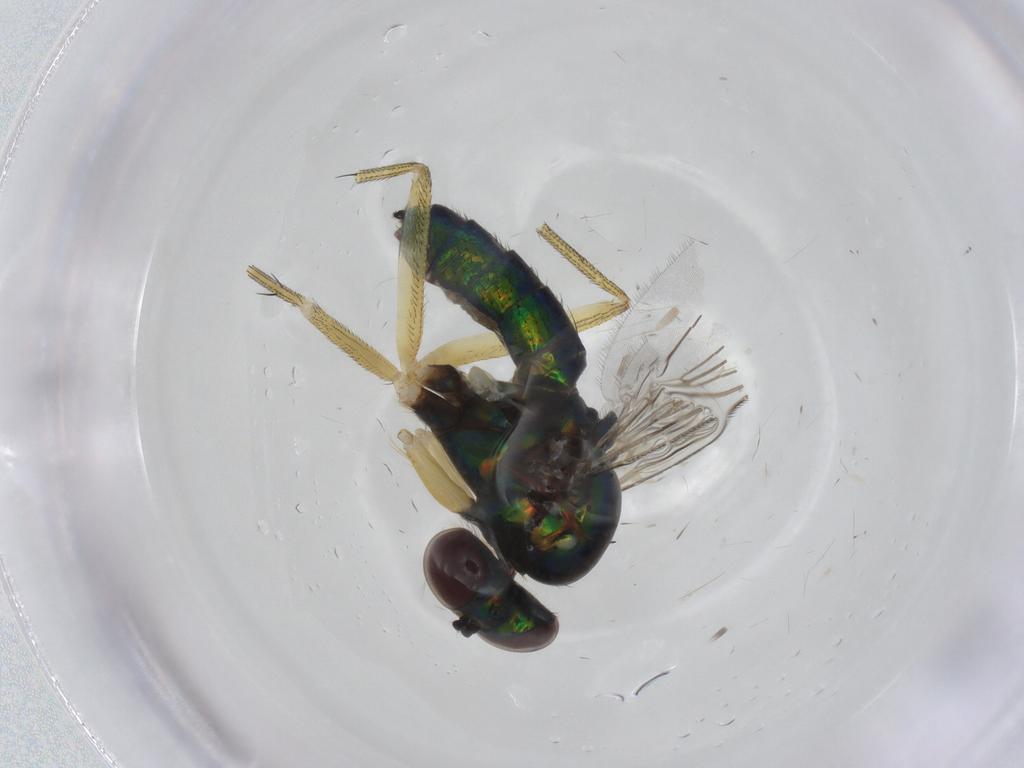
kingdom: Animalia
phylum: Arthropoda
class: Insecta
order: Diptera
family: Dolichopodidae
